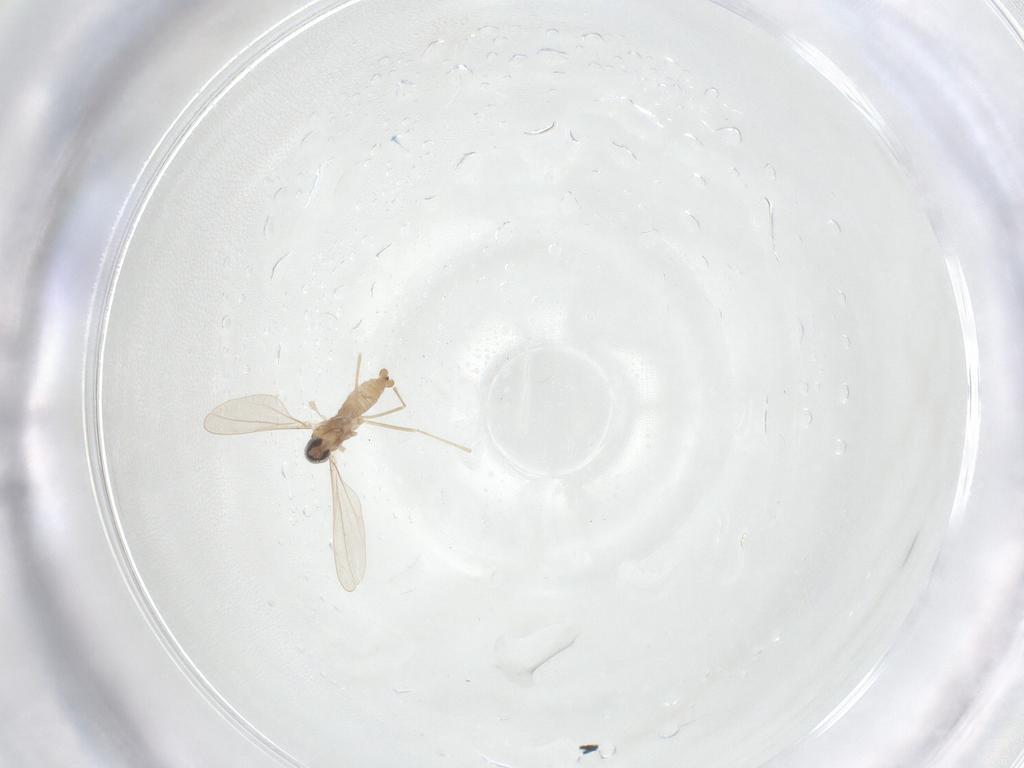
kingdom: Animalia
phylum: Arthropoda
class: Insecta
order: Diptera
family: Cecidomyiidae
